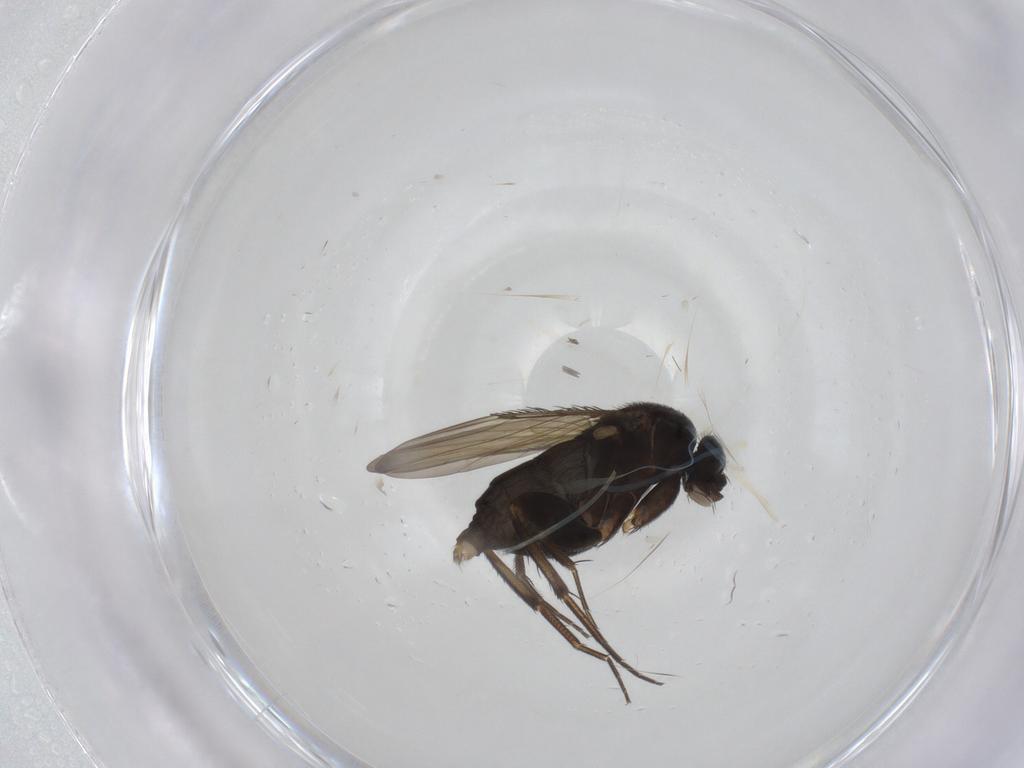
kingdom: Animalia
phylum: Arthropoda
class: Insecta
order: Diptera
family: Phoridae
